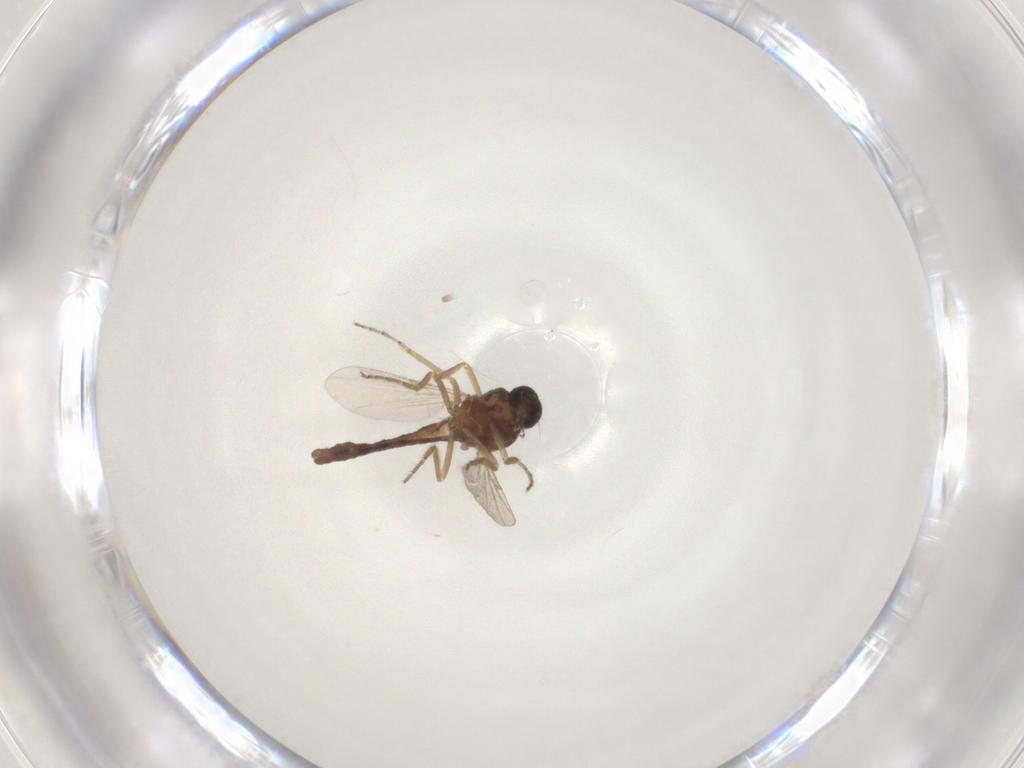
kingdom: Animalia
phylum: Arthropoda
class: Insecta
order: Diptera
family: Ceratopogonidae
